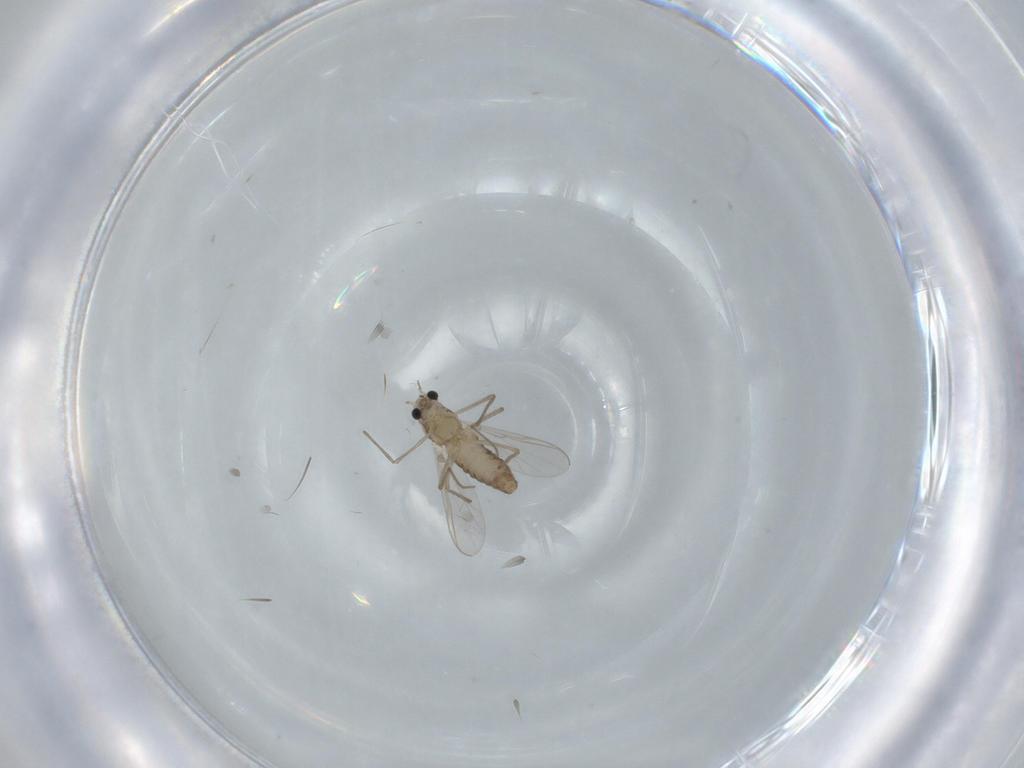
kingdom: Animalia
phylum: Arthropoda
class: Insecta
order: Diptera
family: Chironomidae
